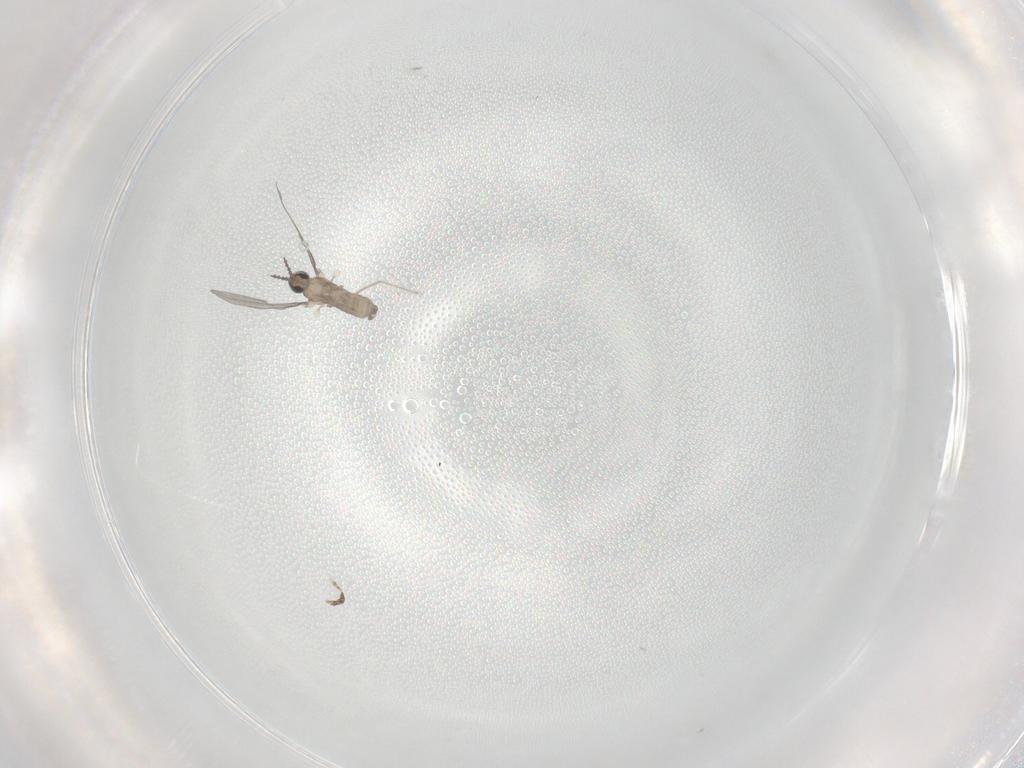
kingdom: Animalia
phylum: Arthropoda
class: Insecta
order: Diptera
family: Cecidomyiidae
